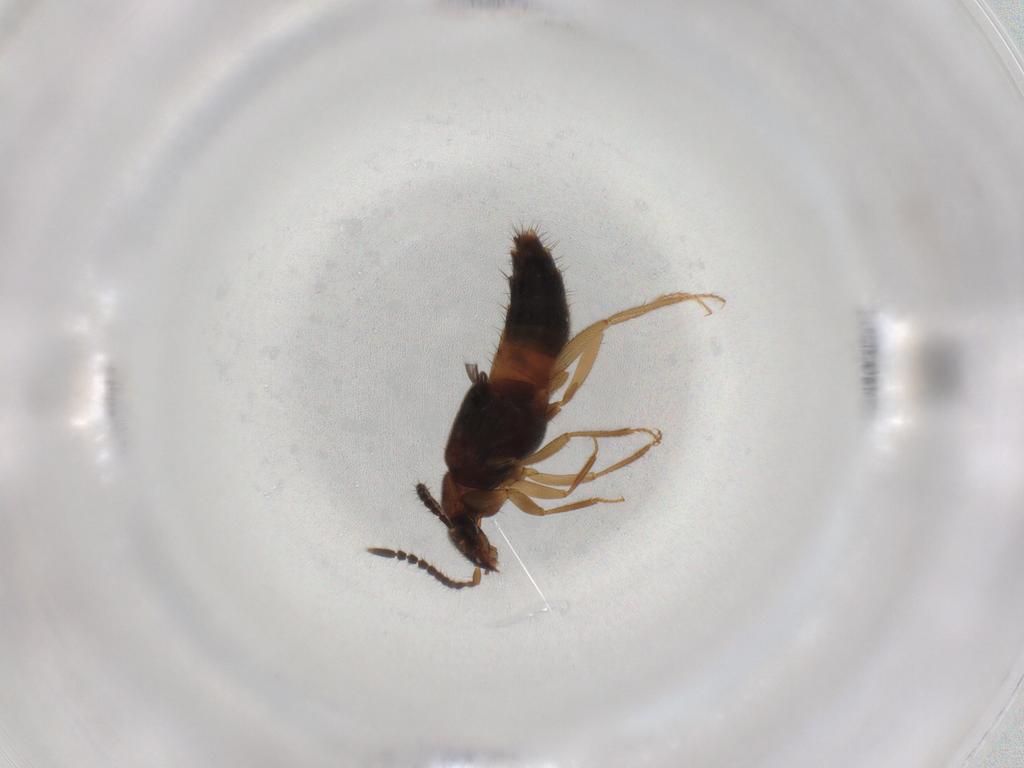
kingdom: Animalia
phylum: Arthropoda
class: Insecta
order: Coleoptera
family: Staphylinidae
